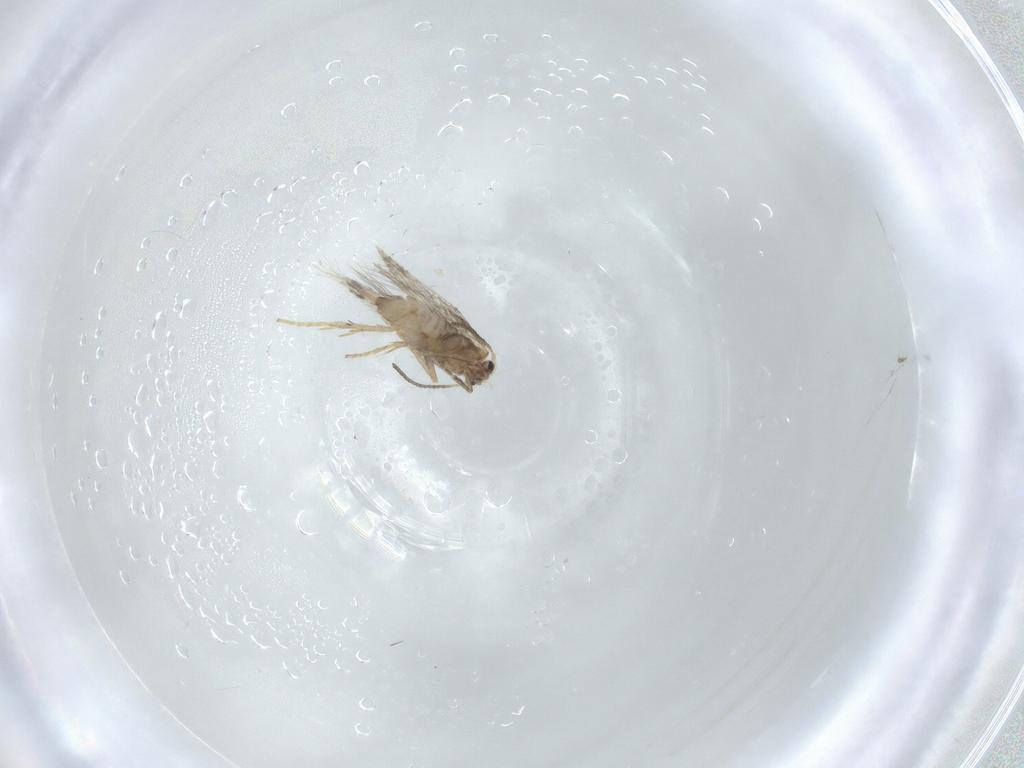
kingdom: Animalia
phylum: Arthropoda
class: Insecta
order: Lepidoptera
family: Nepticulidae
